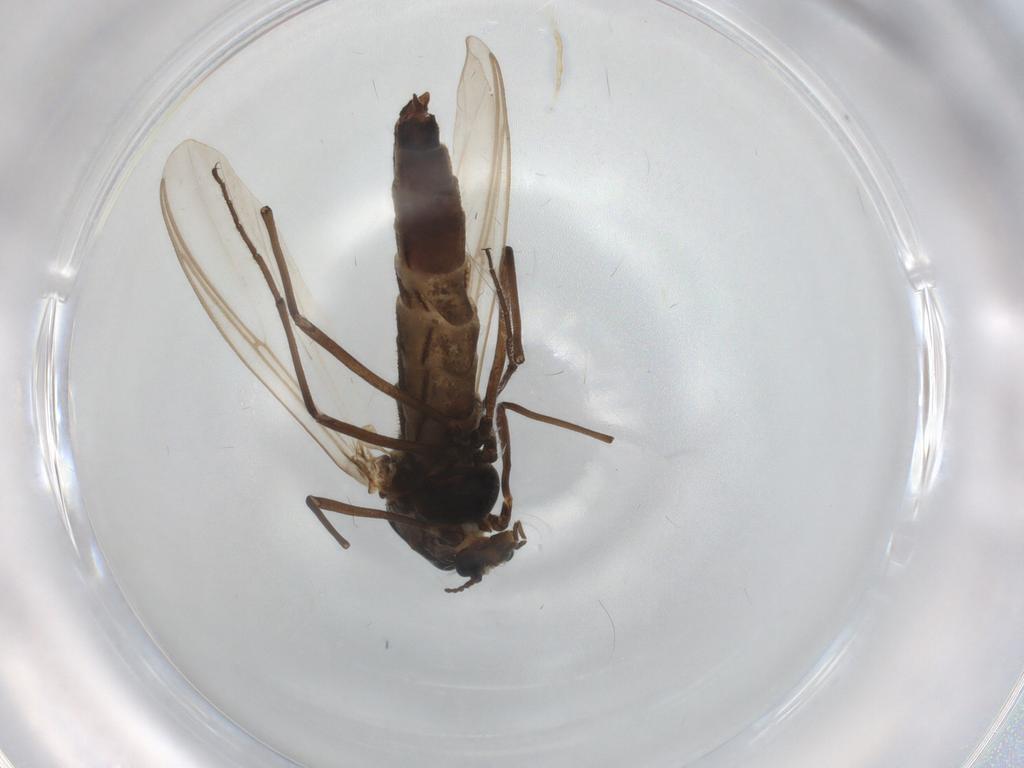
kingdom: Animalia
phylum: Arthropoda
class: Insecta
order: Diptera
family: Chironomidae
